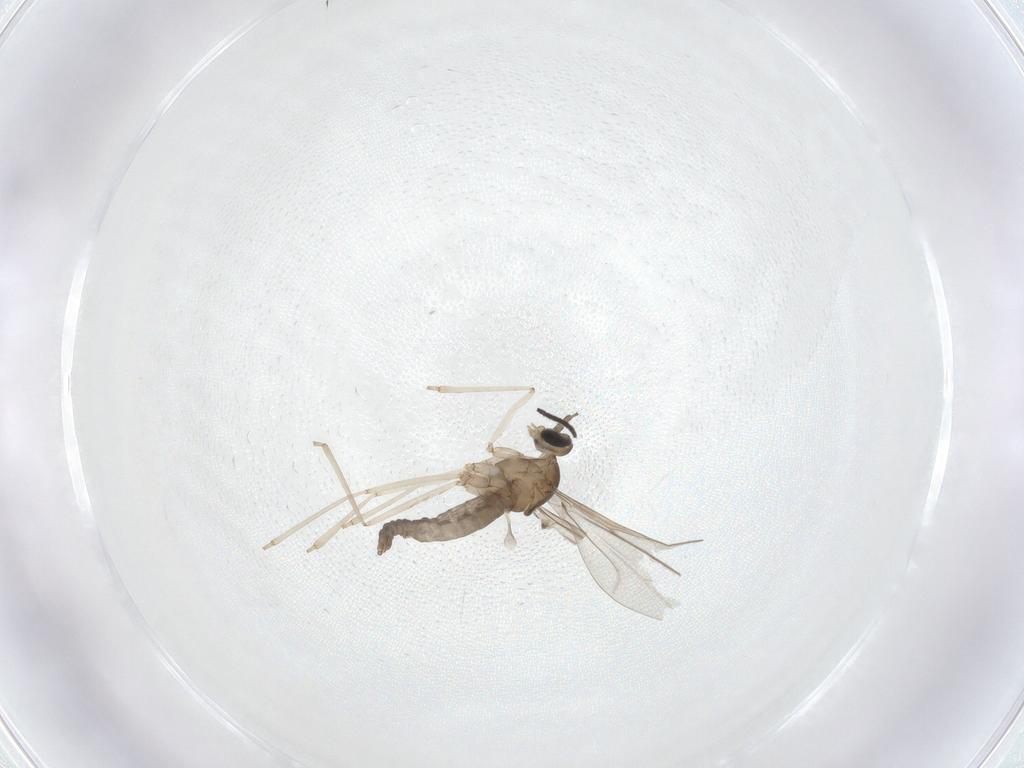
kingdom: Animalia
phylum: Arthropoda
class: Insecta
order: Diptera
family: Sciaridae
